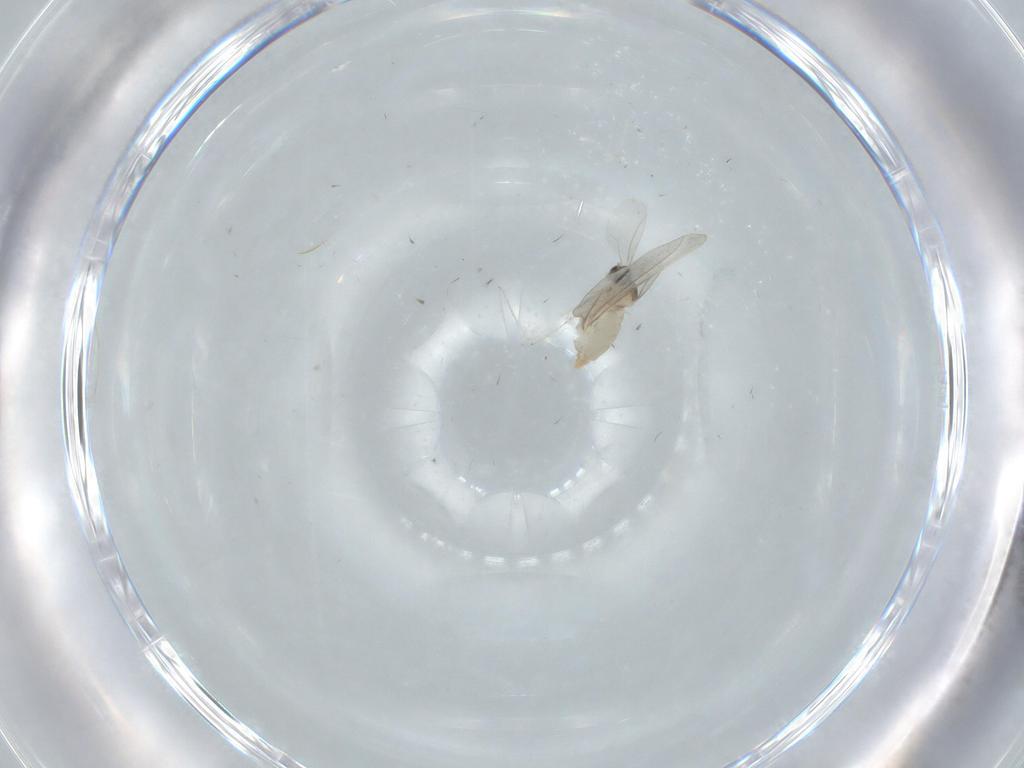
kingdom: Animalia
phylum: Arthropoda
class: Insecta
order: Diptera
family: Cecidomyiidae
